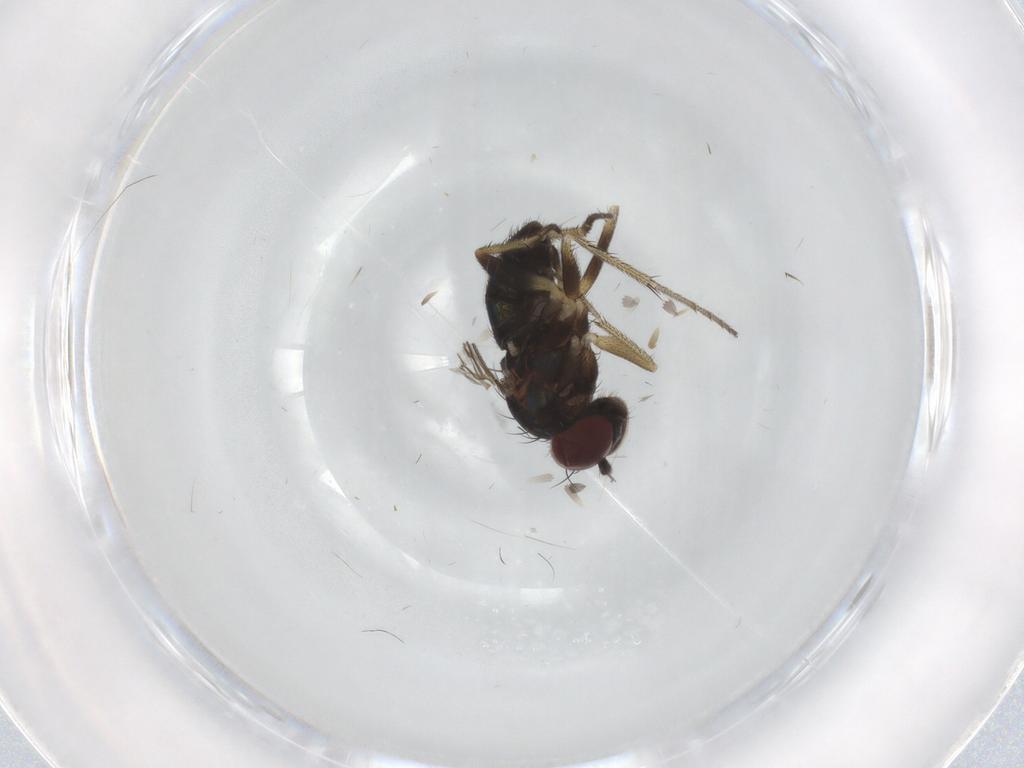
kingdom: Animalia
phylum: Arthropoda
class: Insecta
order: Diptera
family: Dolichopodidae
